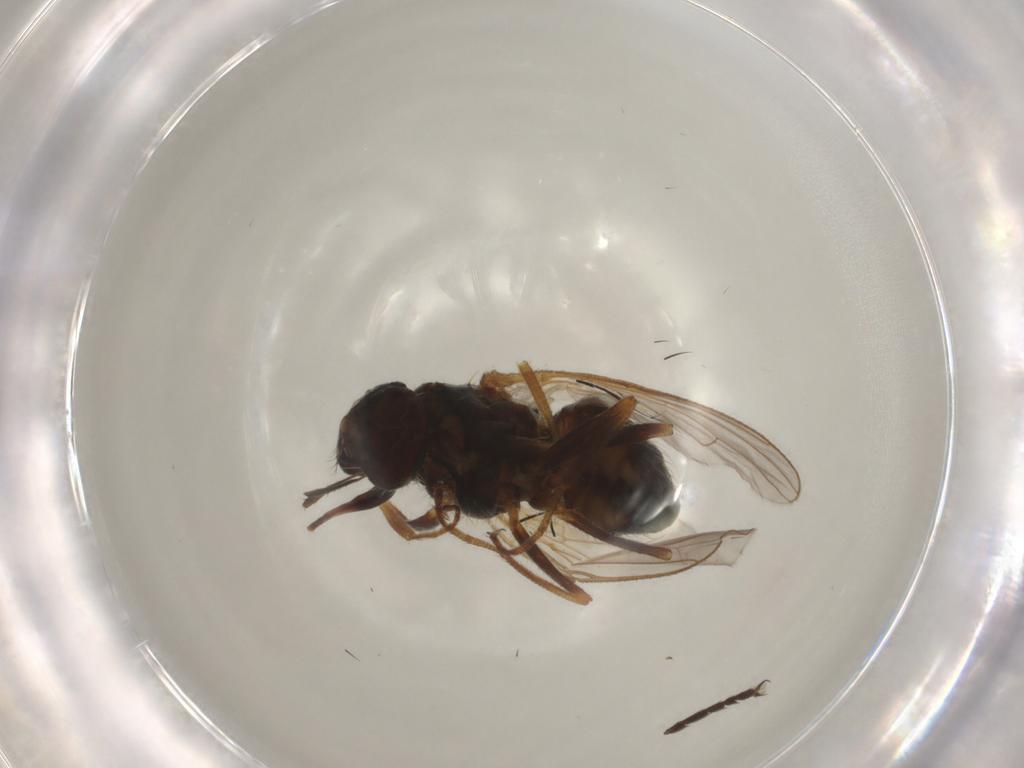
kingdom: Animalia
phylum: Arthropoda
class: Insecta
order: Diptera
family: Muscidae
